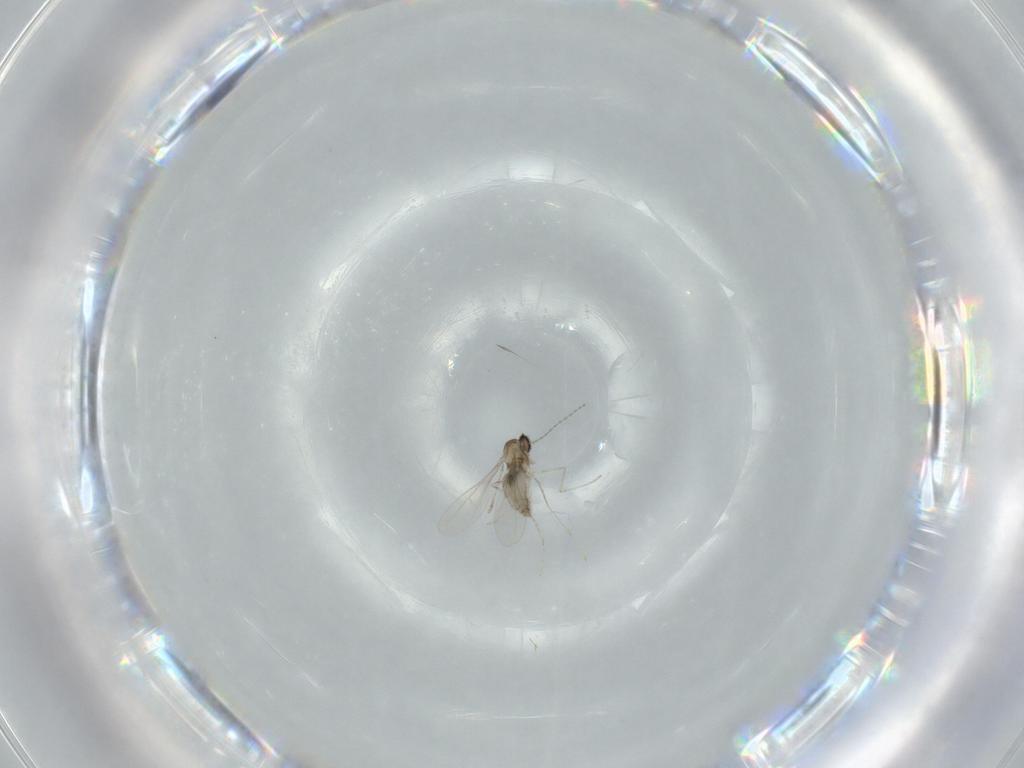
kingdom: Animalia
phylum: Arthropoda
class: Insecta
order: Diptera
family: Cecidomyiidae
